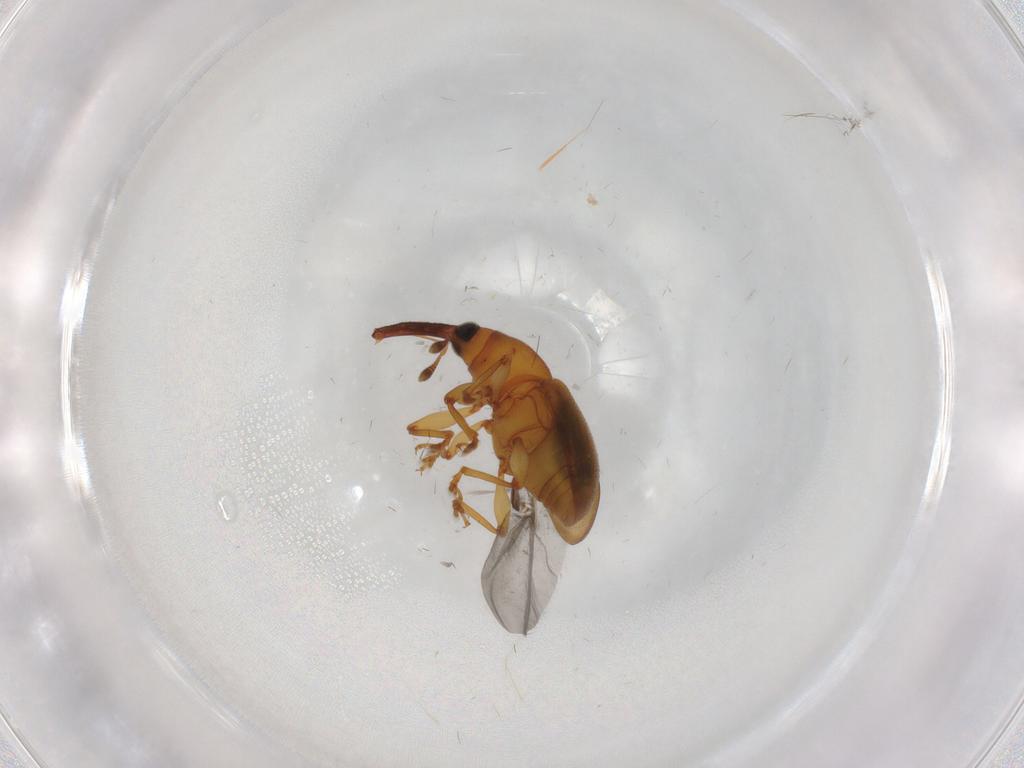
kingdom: Animalia
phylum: Arthropoda
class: Insecta
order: Coleoptera
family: Curculionidae
